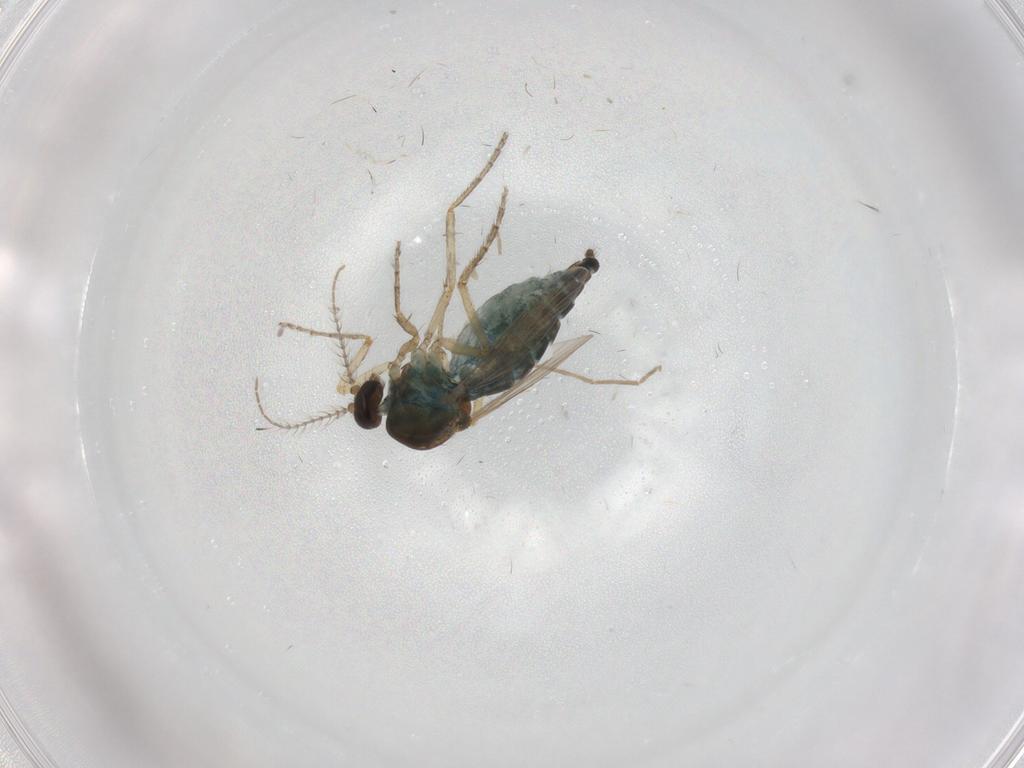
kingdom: Animalia
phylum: Arthropoda
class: Insecta
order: Diptera
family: Ceratopogonidae
